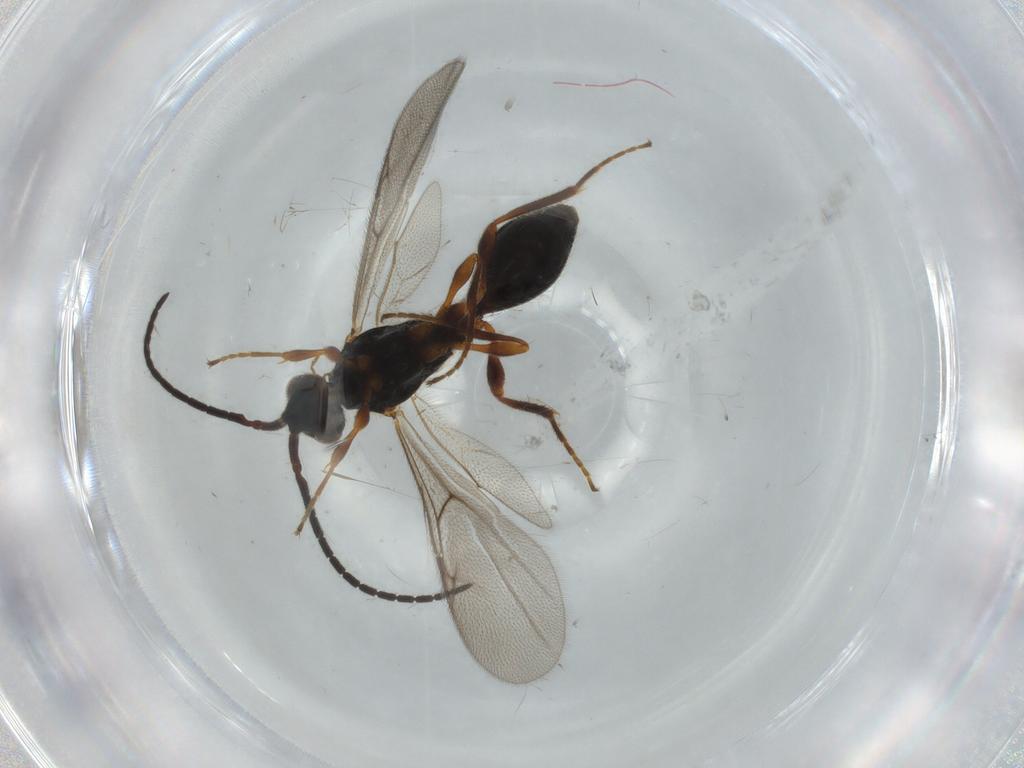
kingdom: Animalia
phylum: Arthropoda
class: Insecta
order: Hymenoptera
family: Diapriidae
